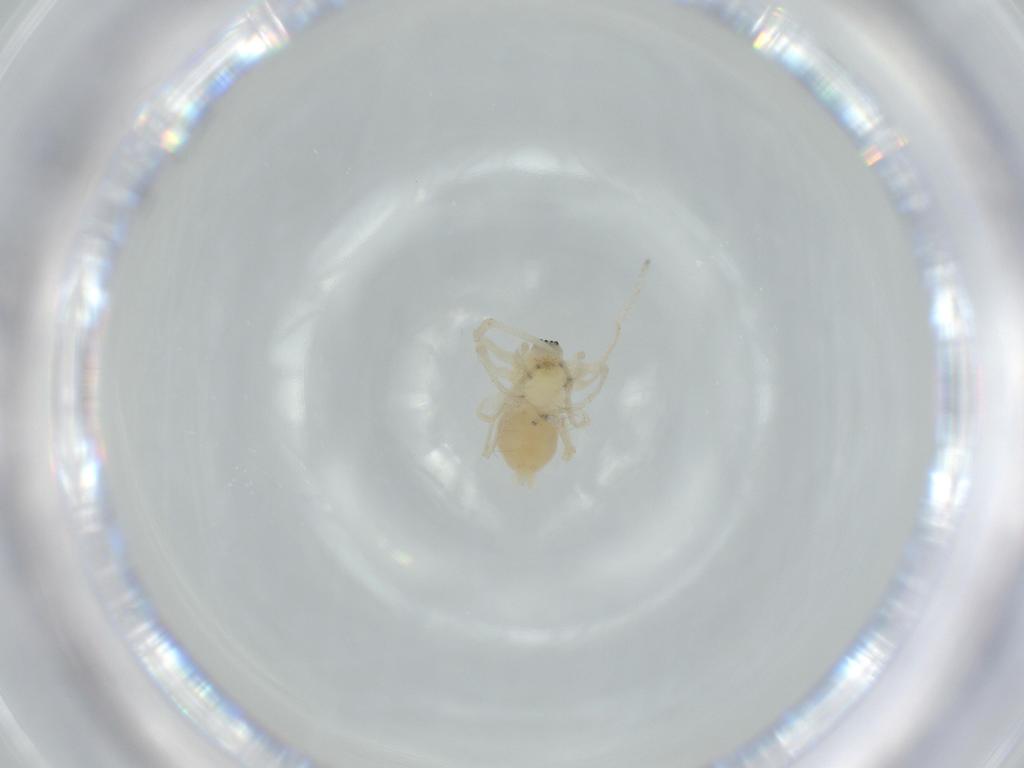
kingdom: Animalia
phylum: Arthropoda
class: Arachnida
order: Araneae
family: Anyphaenidae
